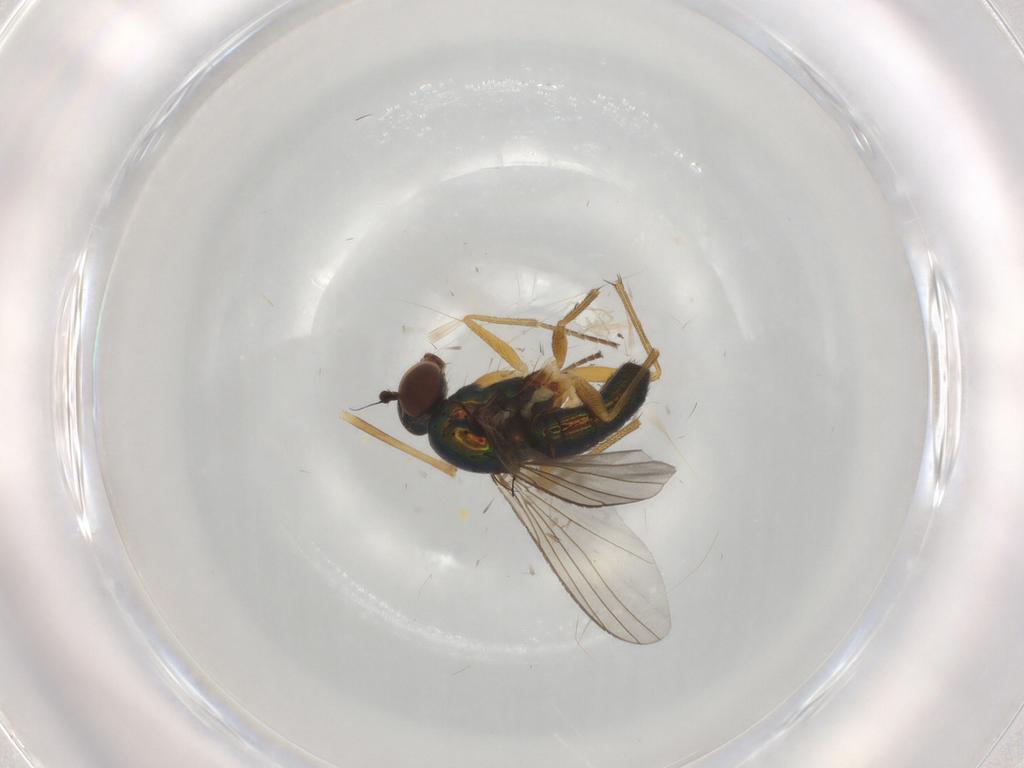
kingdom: Animalia
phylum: Arthropoda
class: Insecta
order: Diptera
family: Dolichopodidae
